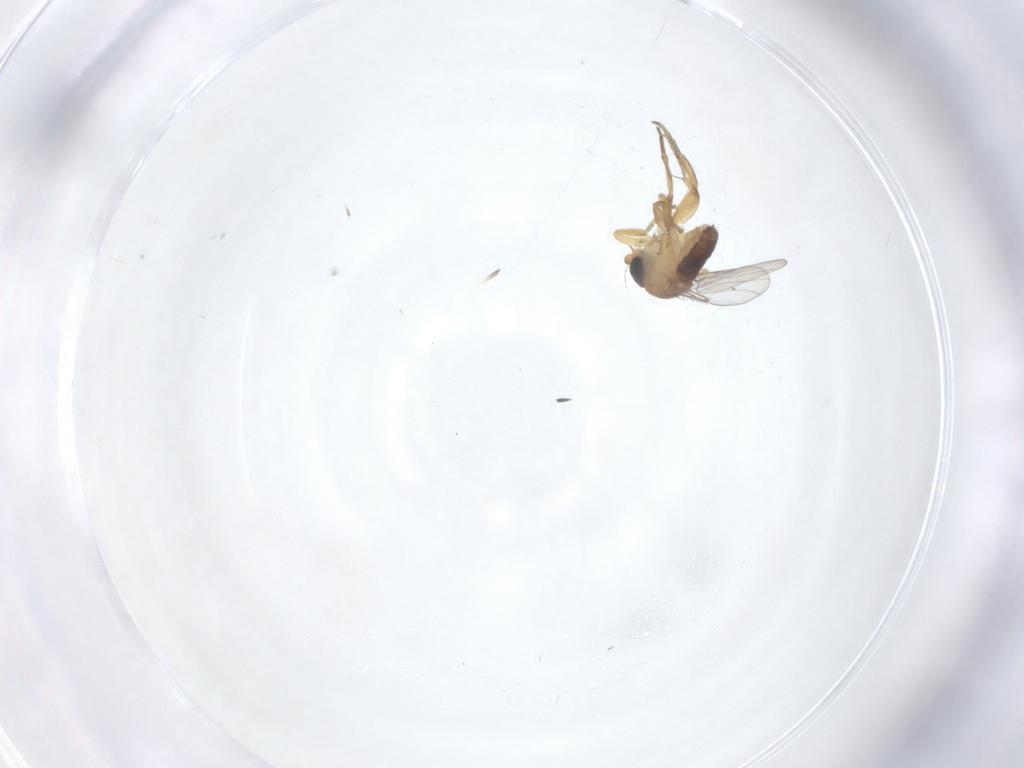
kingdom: Animalia
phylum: Arthropoda
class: Insecta
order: Diptera
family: Phoridae
